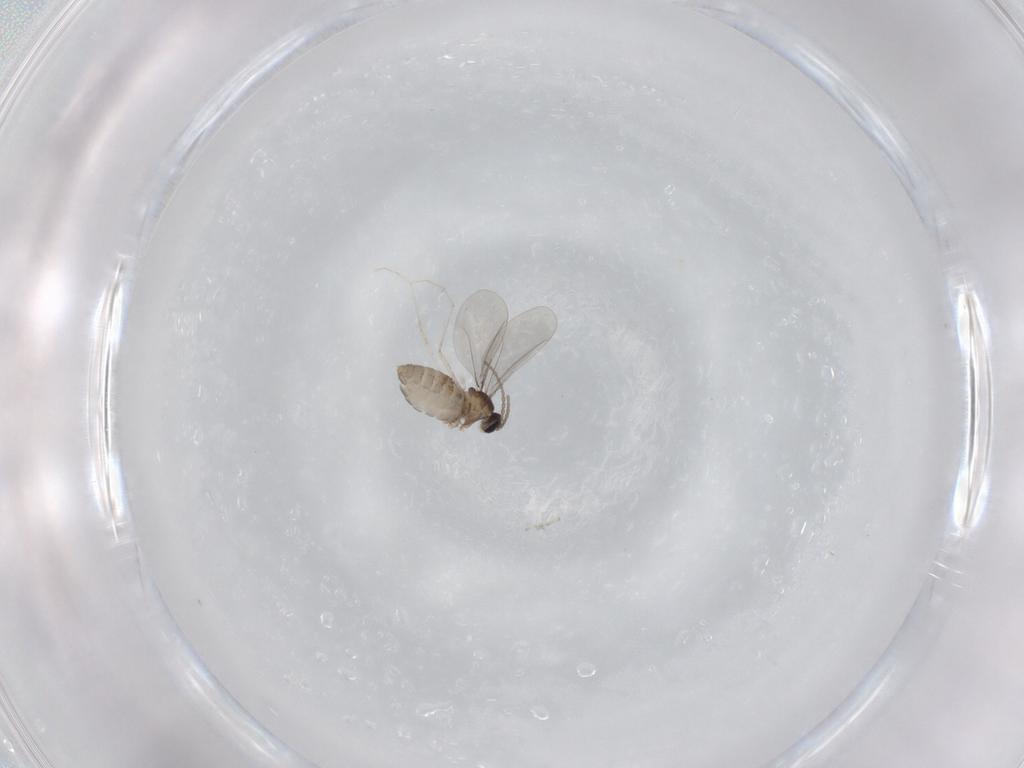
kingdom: Animalia
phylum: Arthropoda
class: Insecta
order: Diptera
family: Cecidomyiidae
